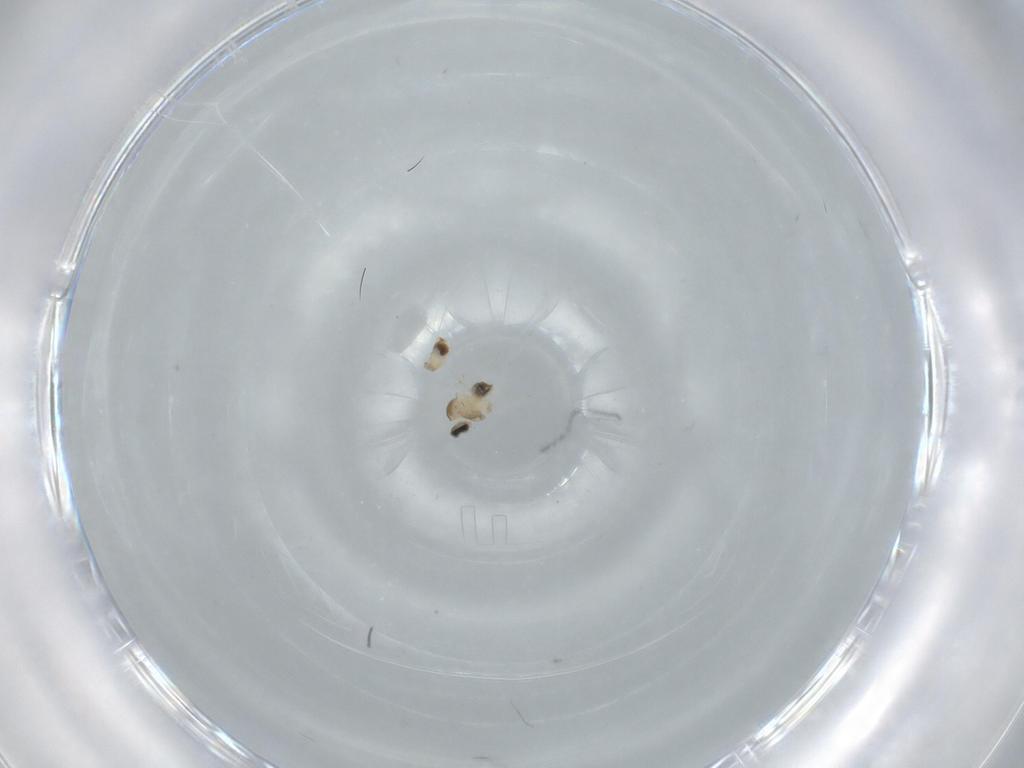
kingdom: Animalia
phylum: Arthropoda
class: Insecta
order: Diptera
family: Cecidomyiidae
